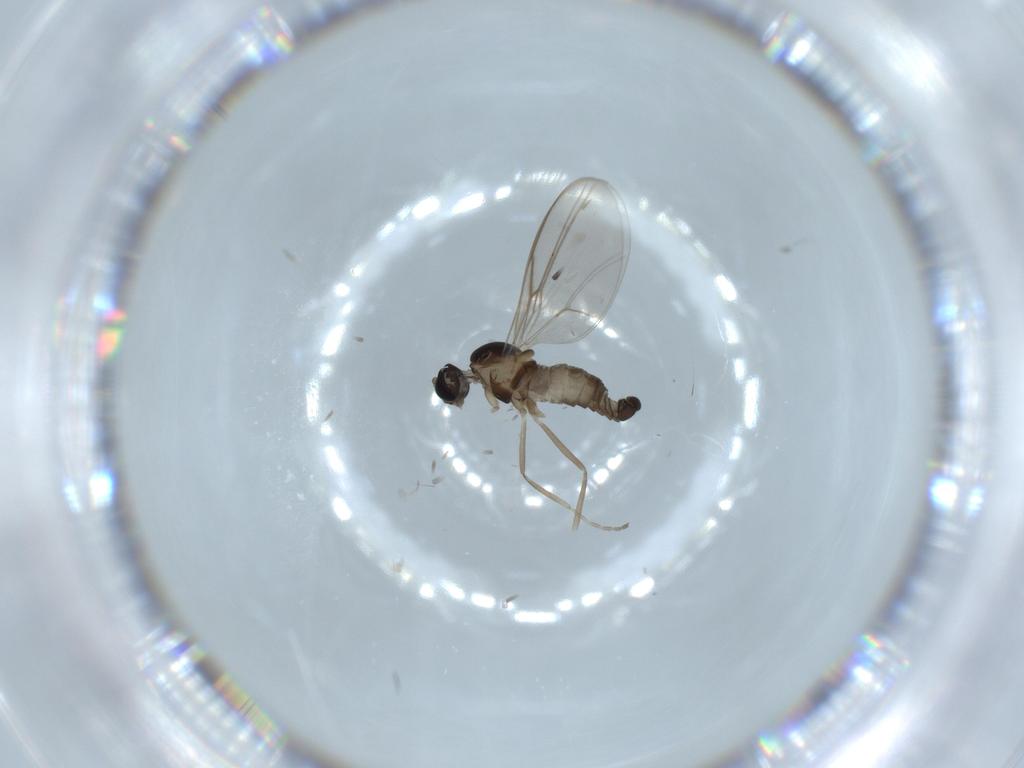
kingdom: Animalia
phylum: Arthropoda
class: Insecta
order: Diptera
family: Cecidomyiidae
